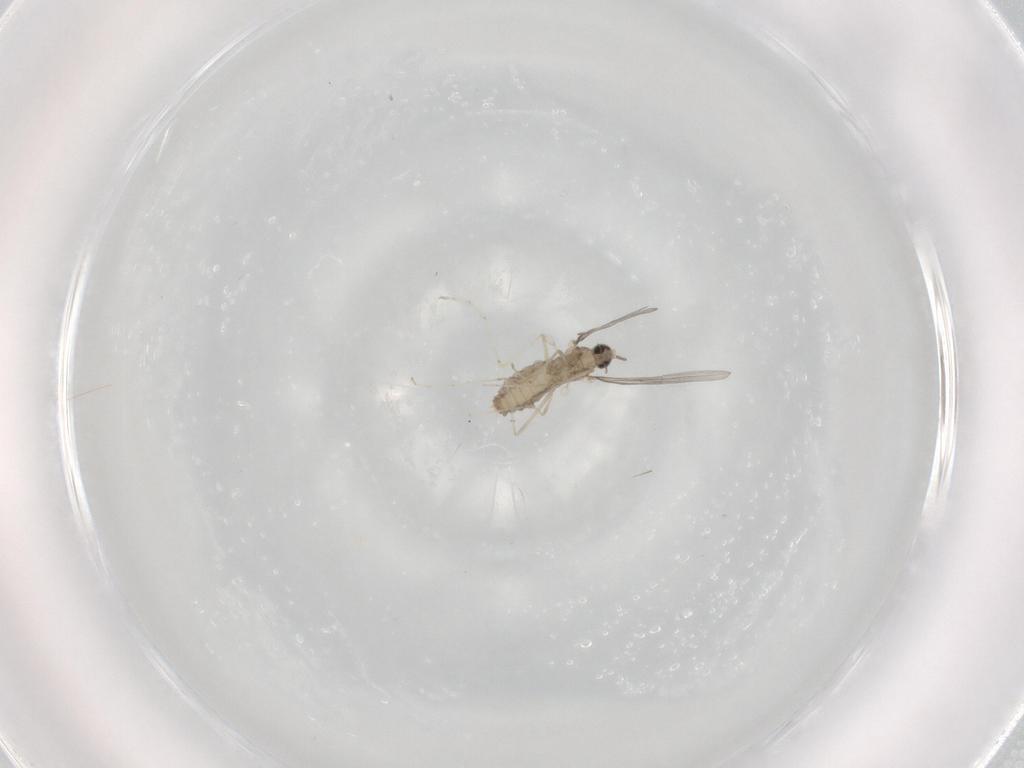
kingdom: Animalia
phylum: Arthropoda
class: Insecta
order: Diptera
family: Cecidomyiidae
